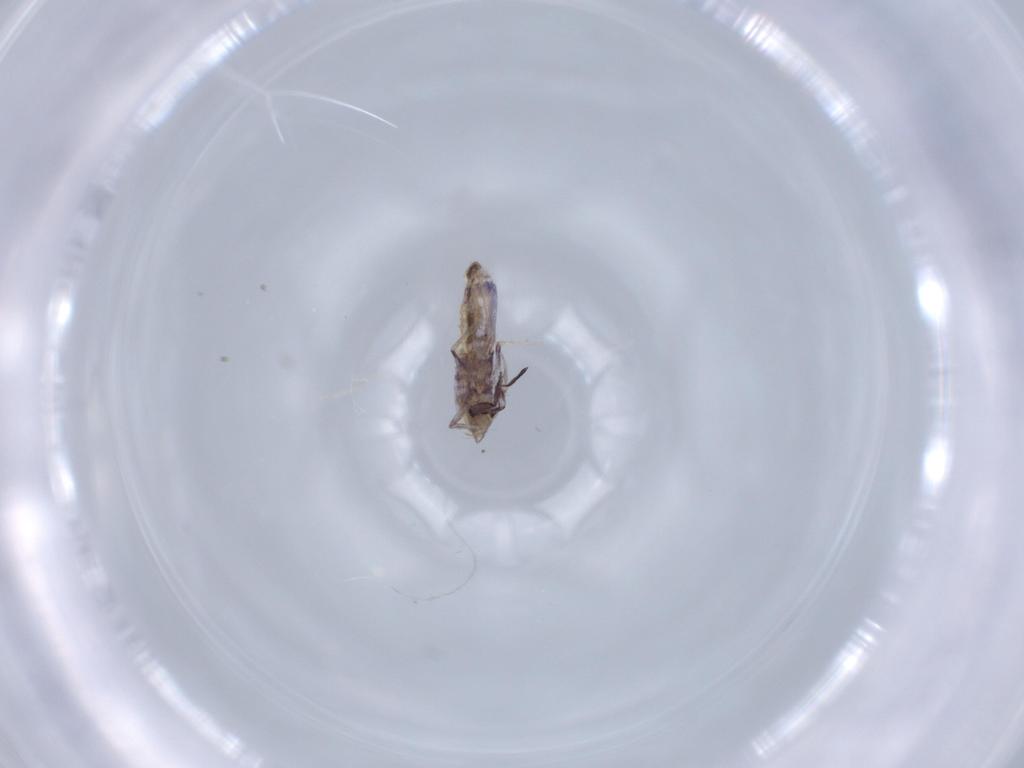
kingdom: Animalia
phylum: Arthropoda
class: Collembola
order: Poduromorpha
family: Hypogastruridae
